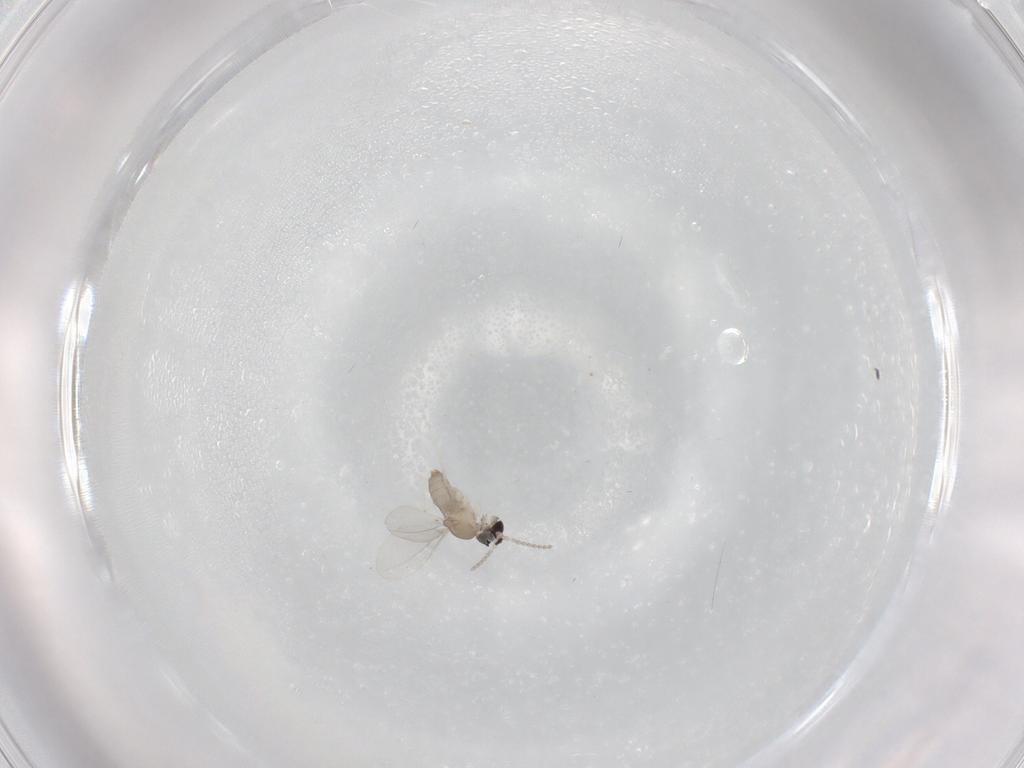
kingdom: Animalia
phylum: Arthropoda
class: Insecta
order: Diptera
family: Cecidomyiidae
